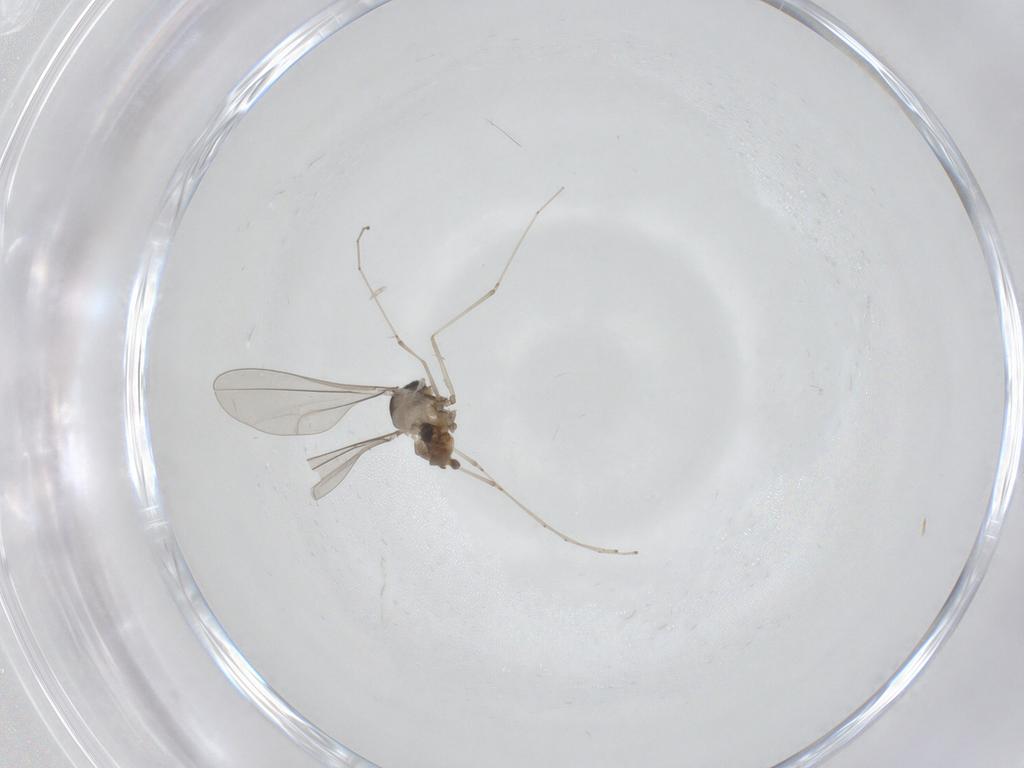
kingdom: Animalia
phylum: Arthropoda
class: Insecta
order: Diptera
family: Cecidomyiidae
